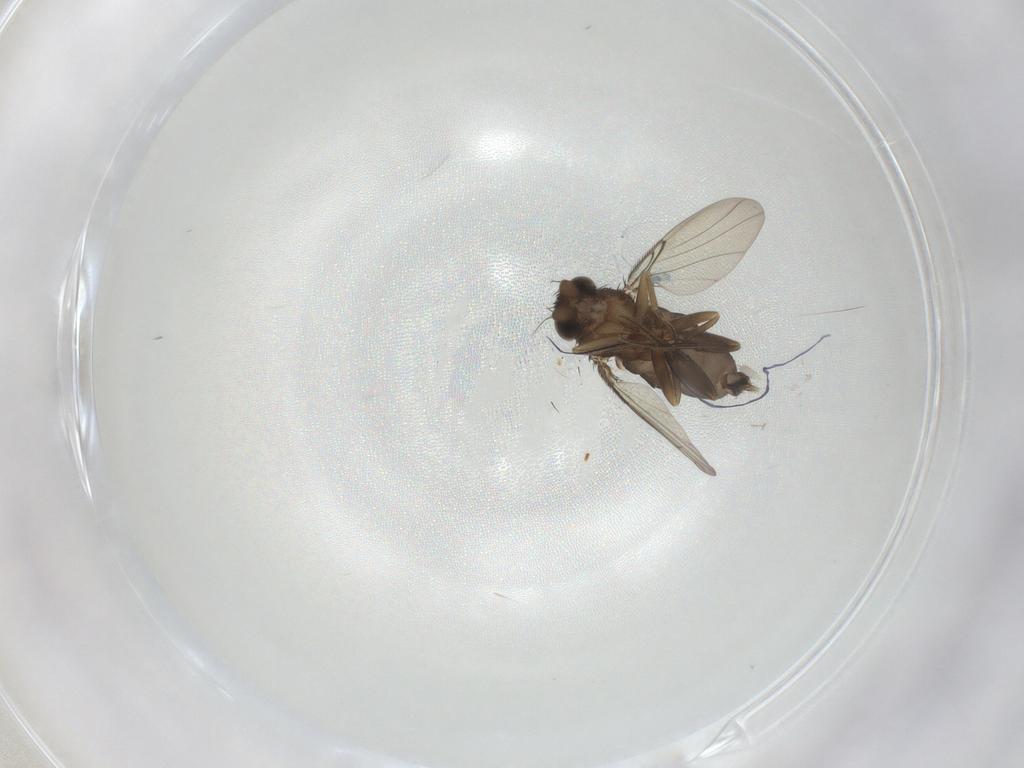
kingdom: Animalia
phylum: Arthropoda
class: Insecta
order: Diptera
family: Phoridae
